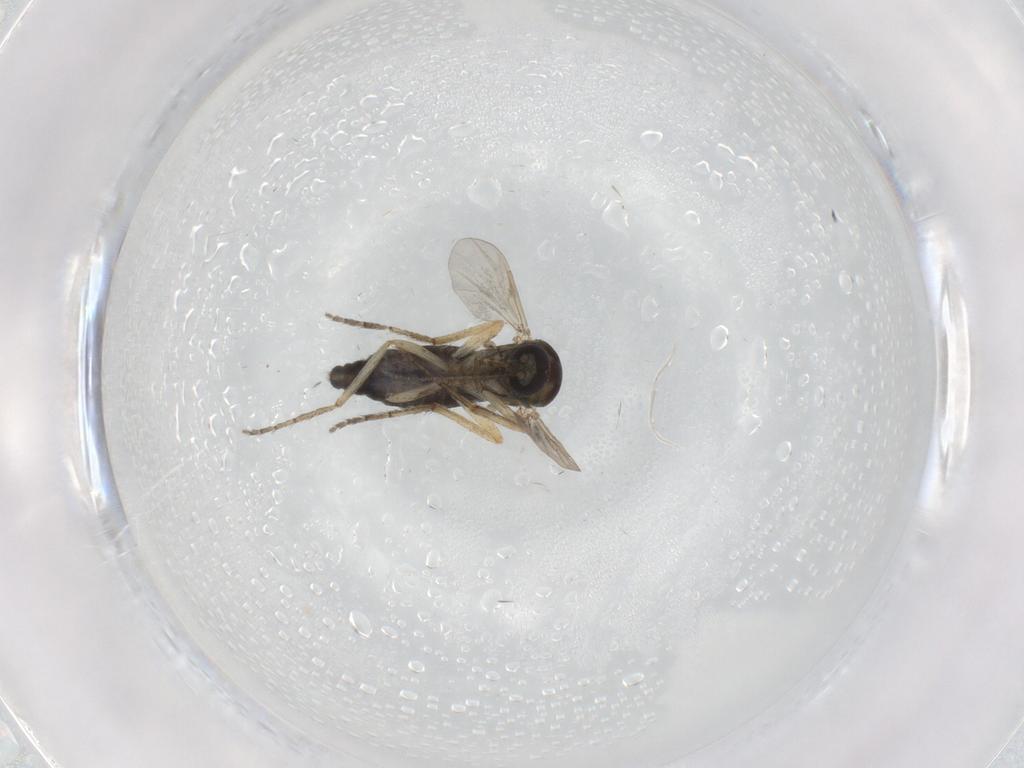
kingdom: Animalia
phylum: Arthropoda
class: Insecta
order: Diptera
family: Ceratopogonidae
